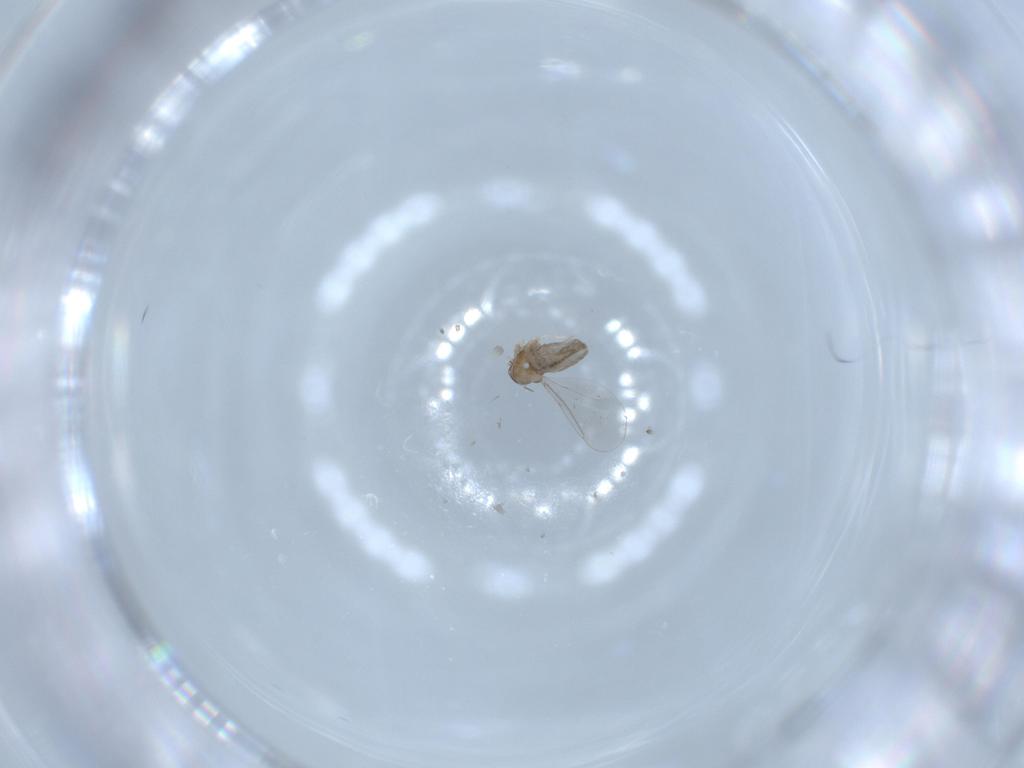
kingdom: Animalia
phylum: Arthropoda
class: Insecta
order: Diptera
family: Cecidomyiidae
